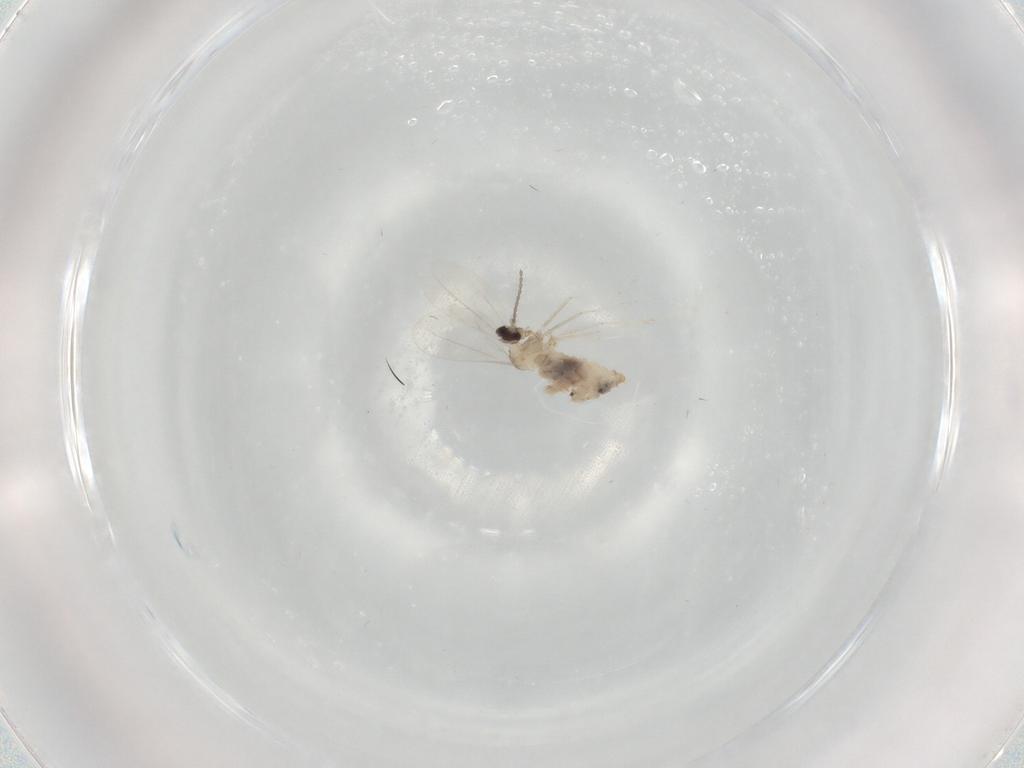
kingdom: Animalia
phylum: Arthropoda
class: Insecta
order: Diptera
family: Cecidomyiidae
